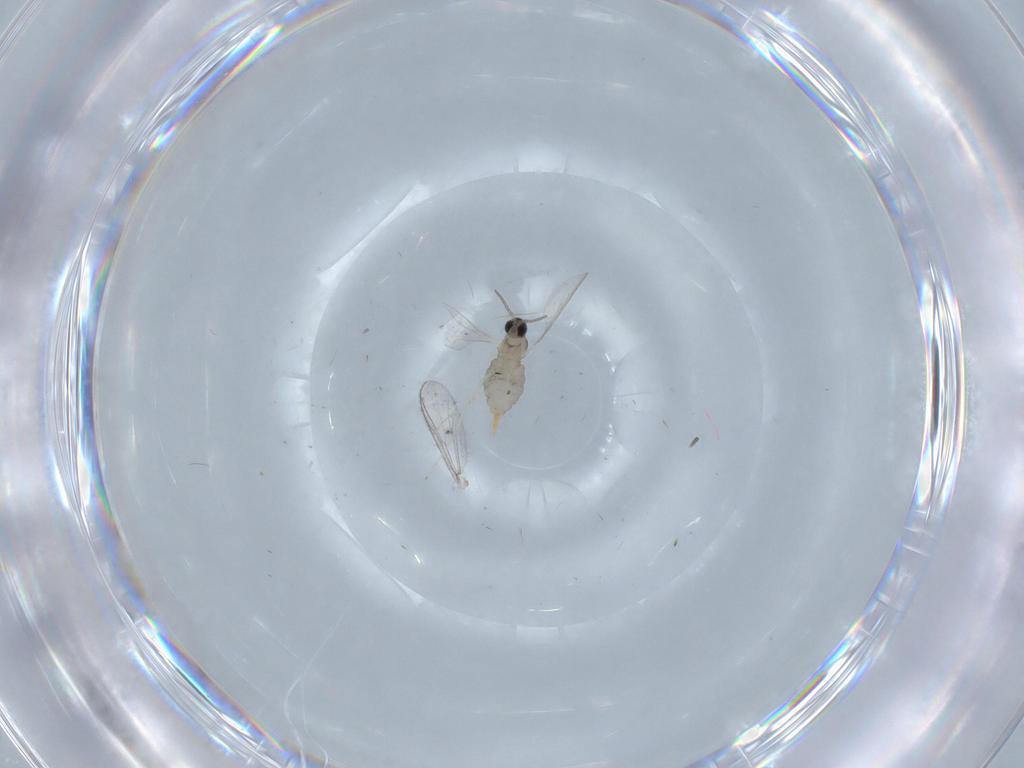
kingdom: Animalia
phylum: Arthropoda
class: Insecta
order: Diptera
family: Chironomidae
